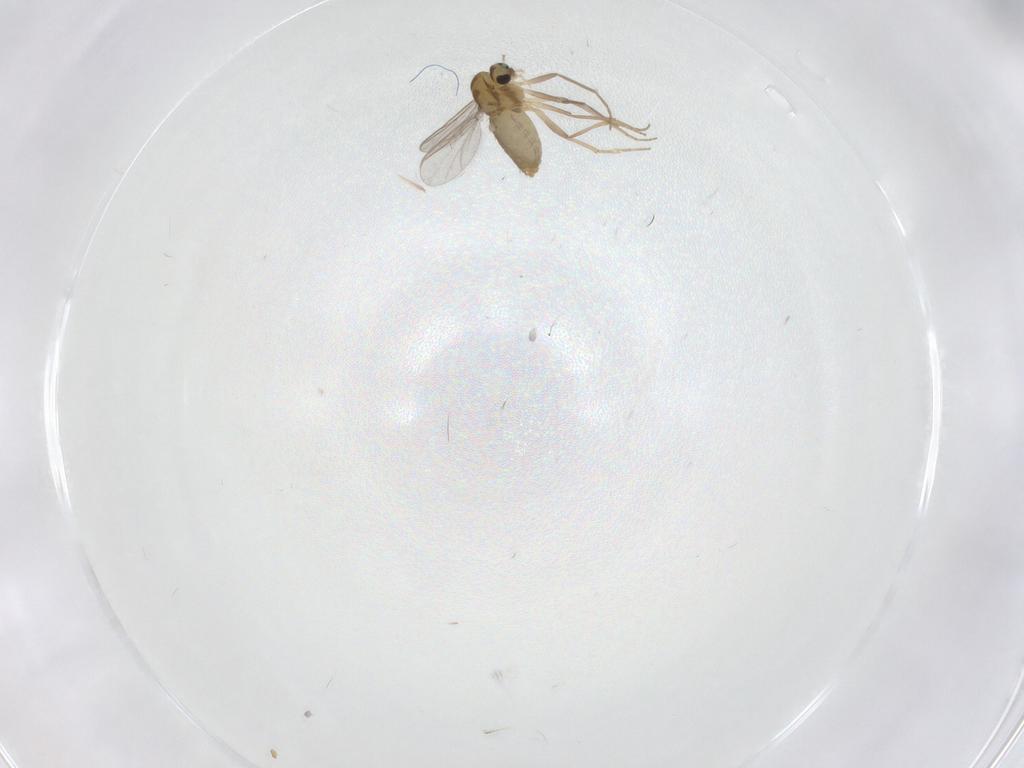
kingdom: Animalia
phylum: Arthropoda
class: Insecta
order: Diptera
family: Chironomidae
